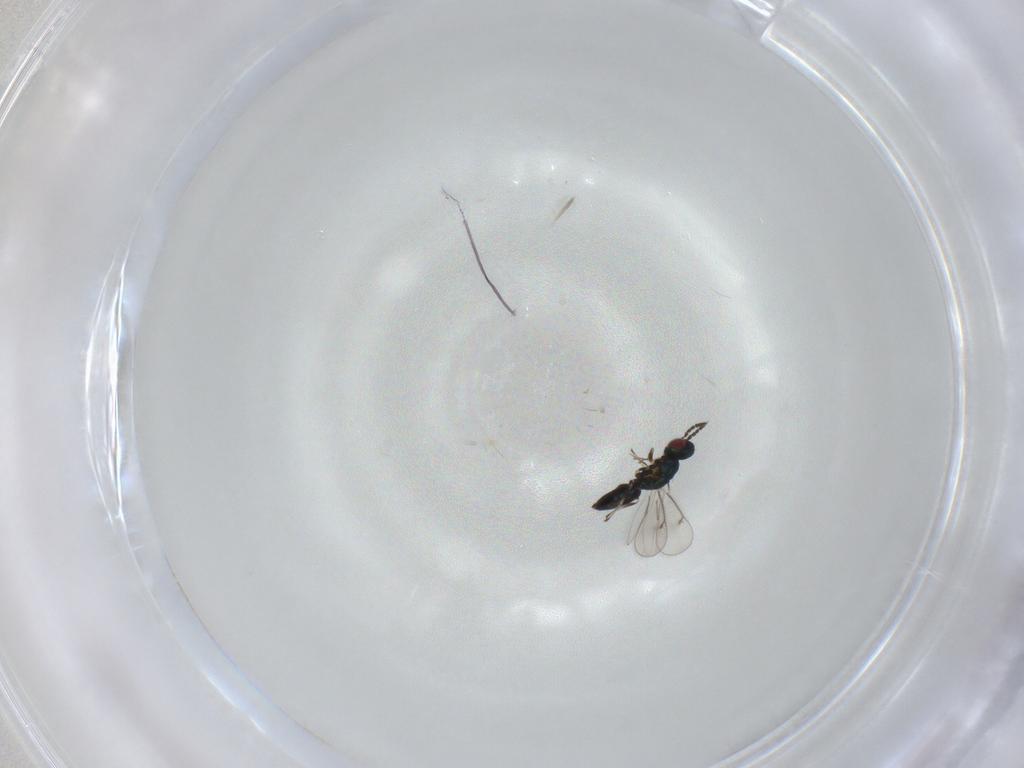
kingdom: Animalia
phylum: Arthropoda
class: Insecta
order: Hymenoptera
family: Eulophidae
